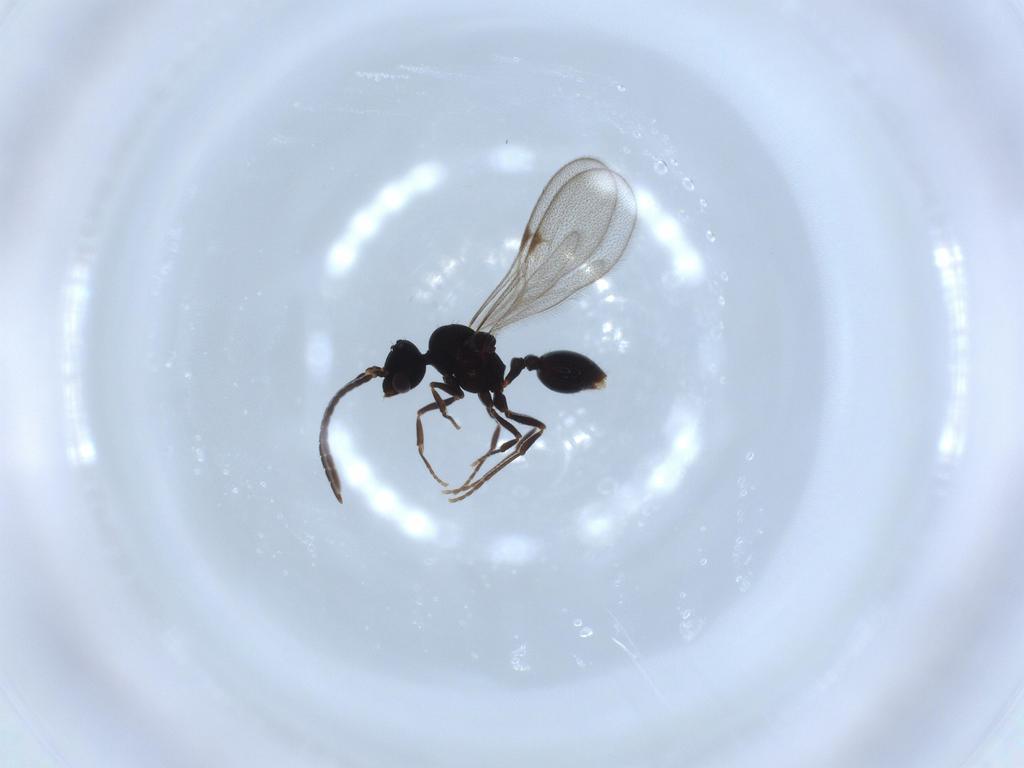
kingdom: Animalia
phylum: Arthropoda
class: Insecta
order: Hymenoptera
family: Formicidae
